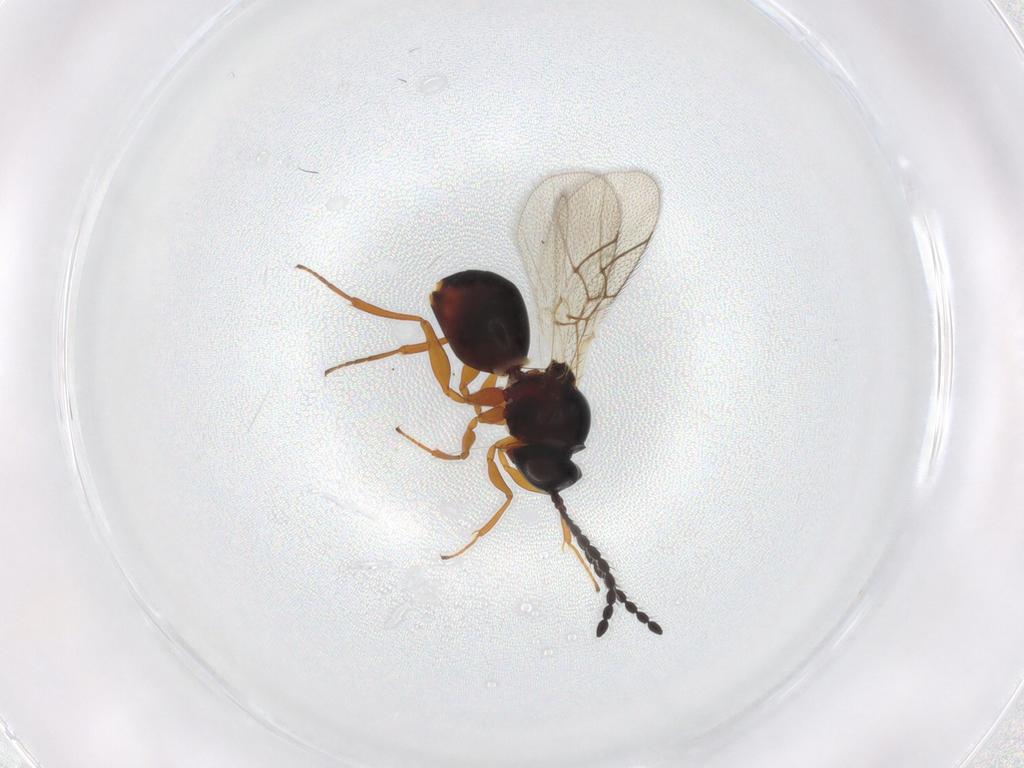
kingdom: Animalia
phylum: Arthropoda
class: Insecta
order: Hymenoptera
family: Figitidae
